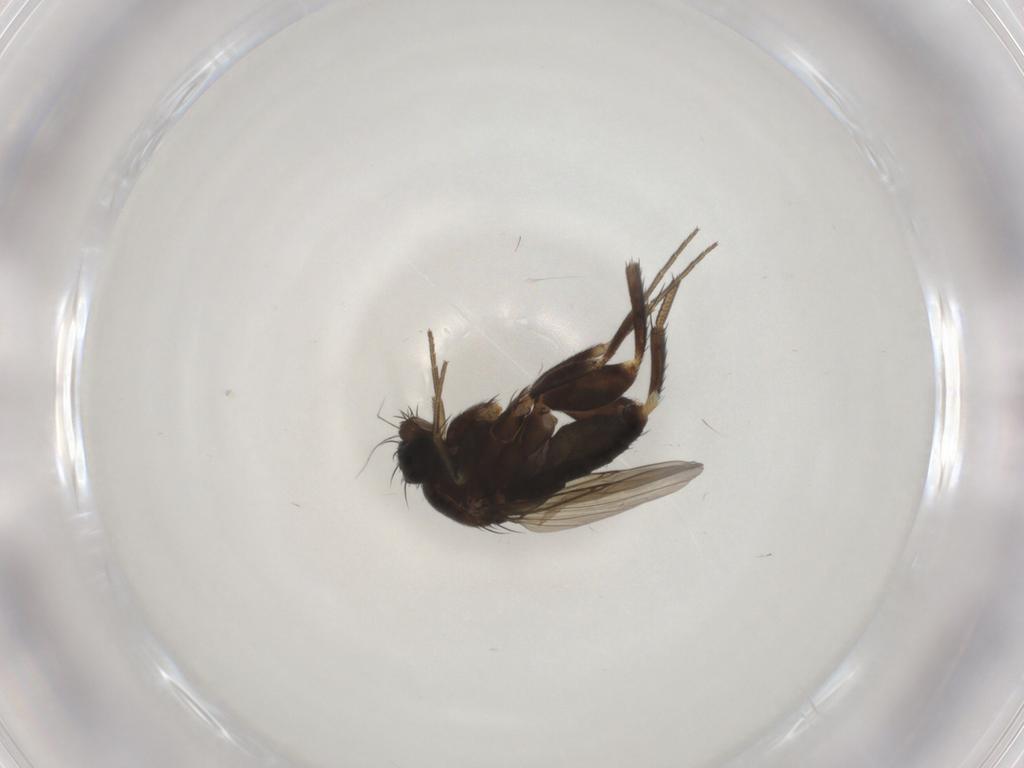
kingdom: Animalia
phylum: Arthropoda
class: Insecta
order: Diptera
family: Phoridae
